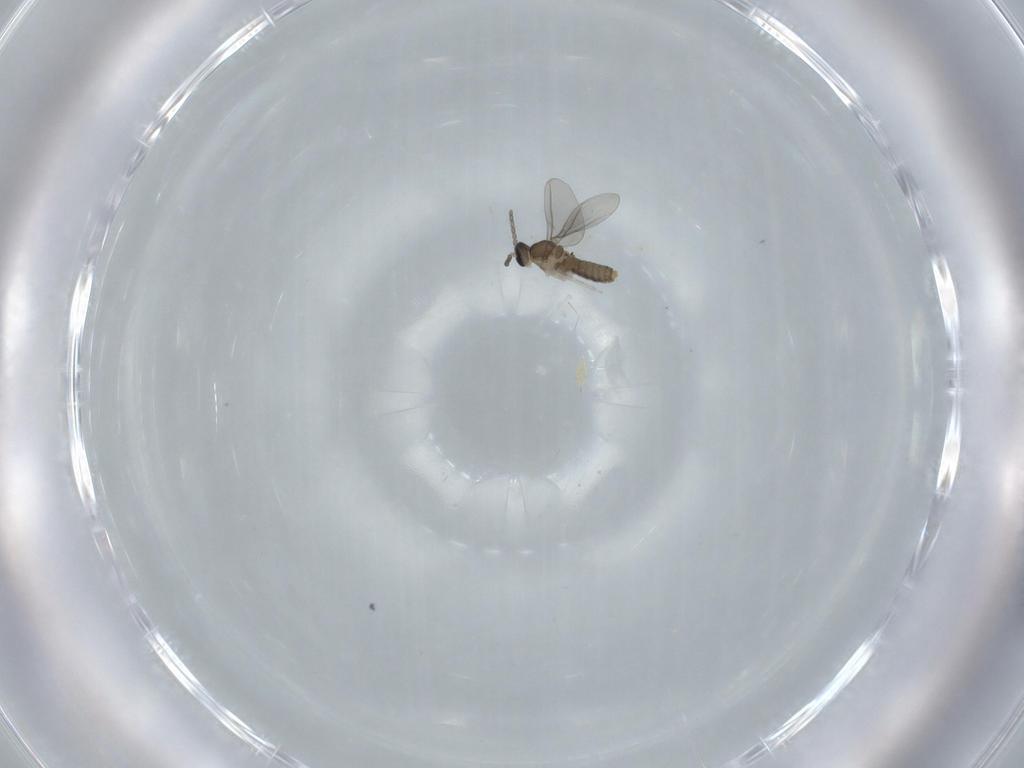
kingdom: Animalia
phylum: Arthropoda
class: Insecta
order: Diptera
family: Cecidomyiidae
